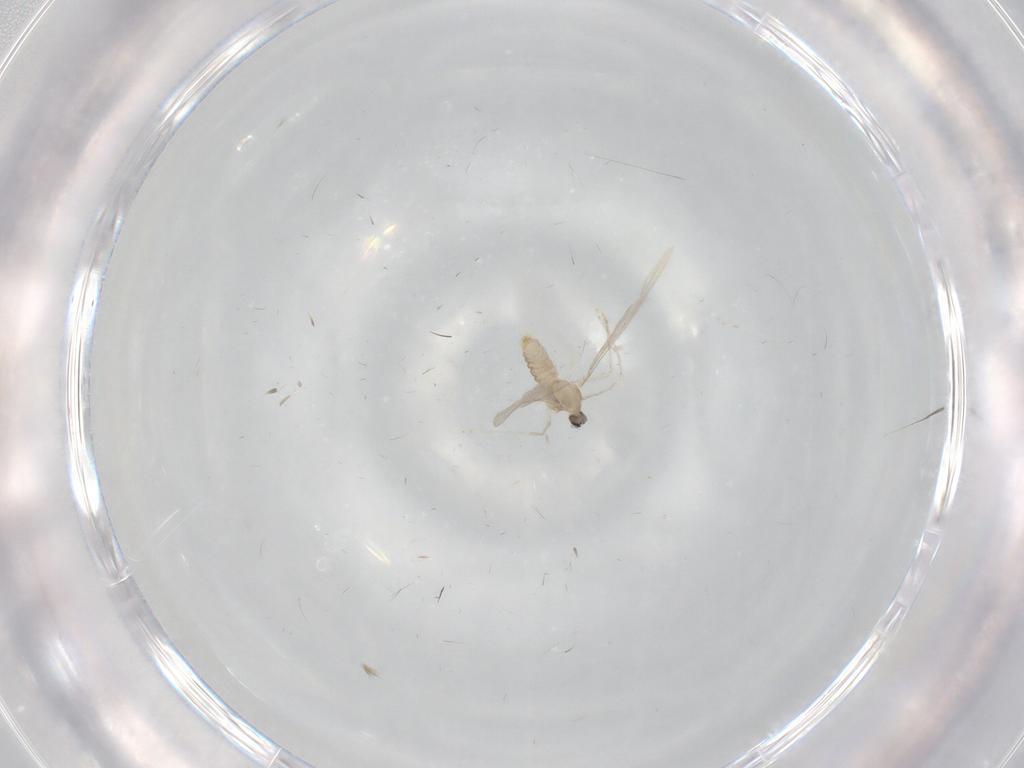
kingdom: Animalia
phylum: Arthropoda
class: Insecta
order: Diptera
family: Cecidomyiidae
